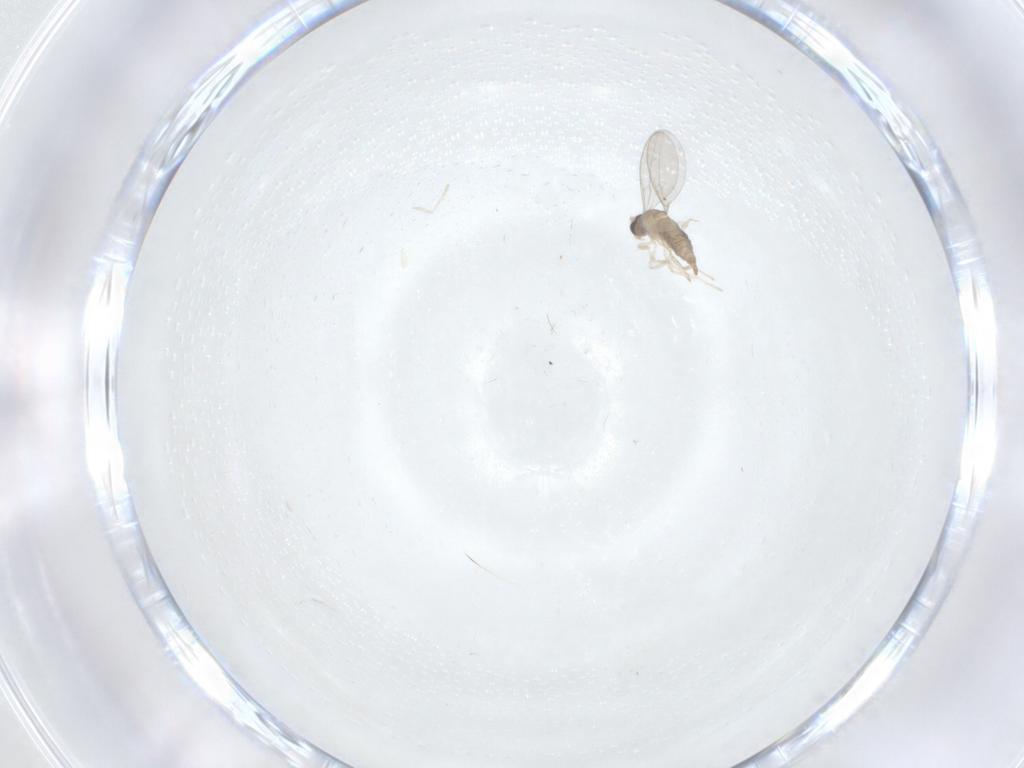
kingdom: Animalia
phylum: Arthropoda
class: Insecta
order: Diptera
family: Cecidomyiidae
